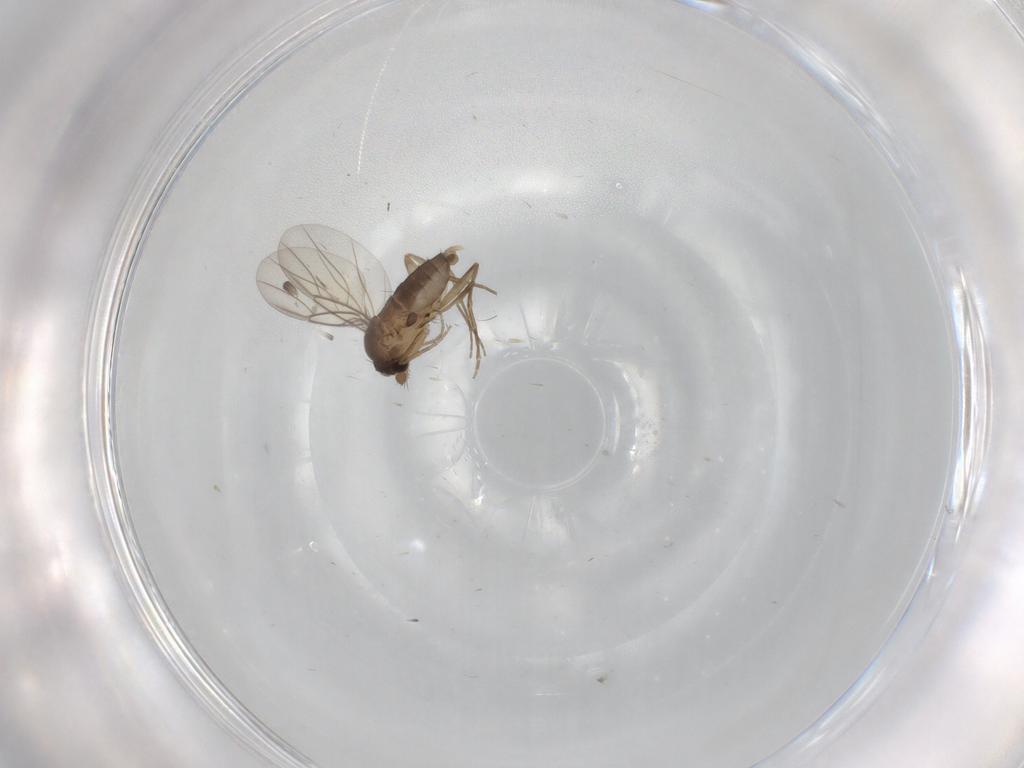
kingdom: Animalia
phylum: Arthropoda
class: Insecta
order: Diptera
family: Ceratopogonidae
